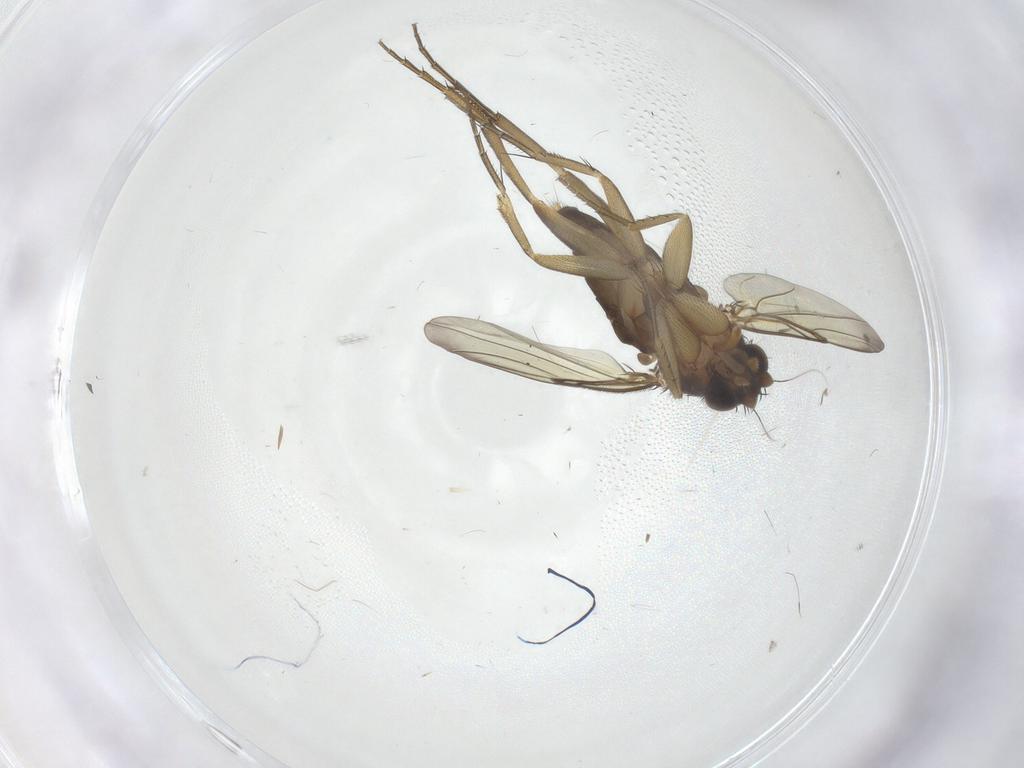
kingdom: Animalia
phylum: Arthropoda
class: Insecta
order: Diptera
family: Phoridae
